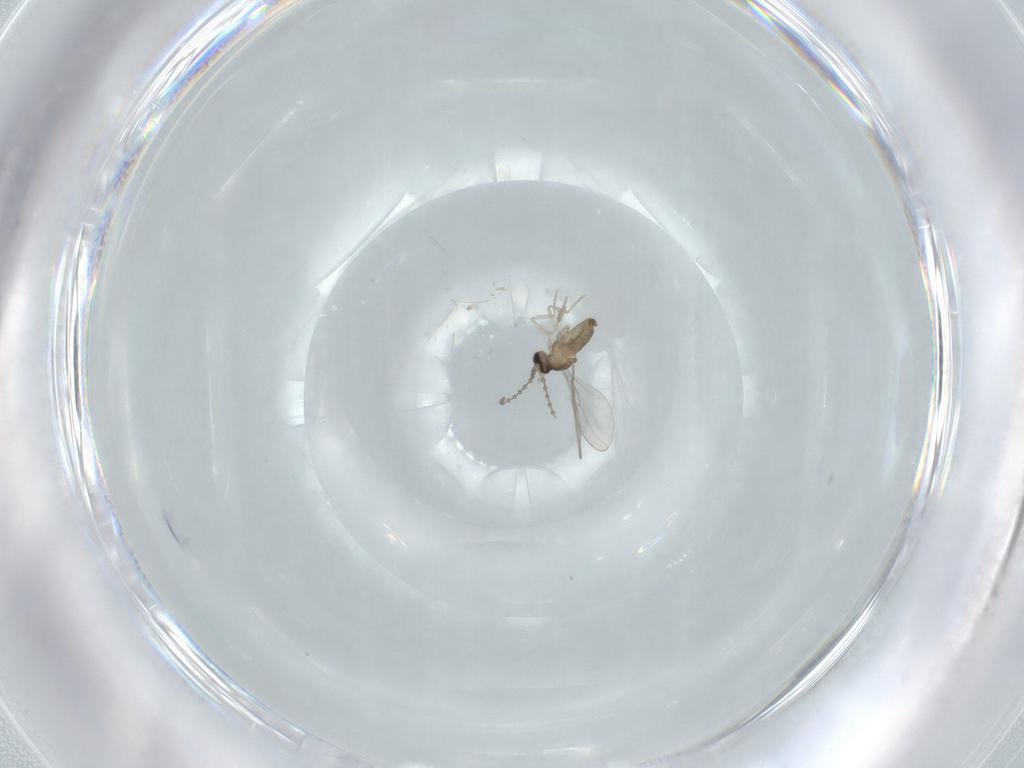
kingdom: Animalia
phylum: Arthropoda
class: Insecta
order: Diptera
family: Cecidomyiidae
